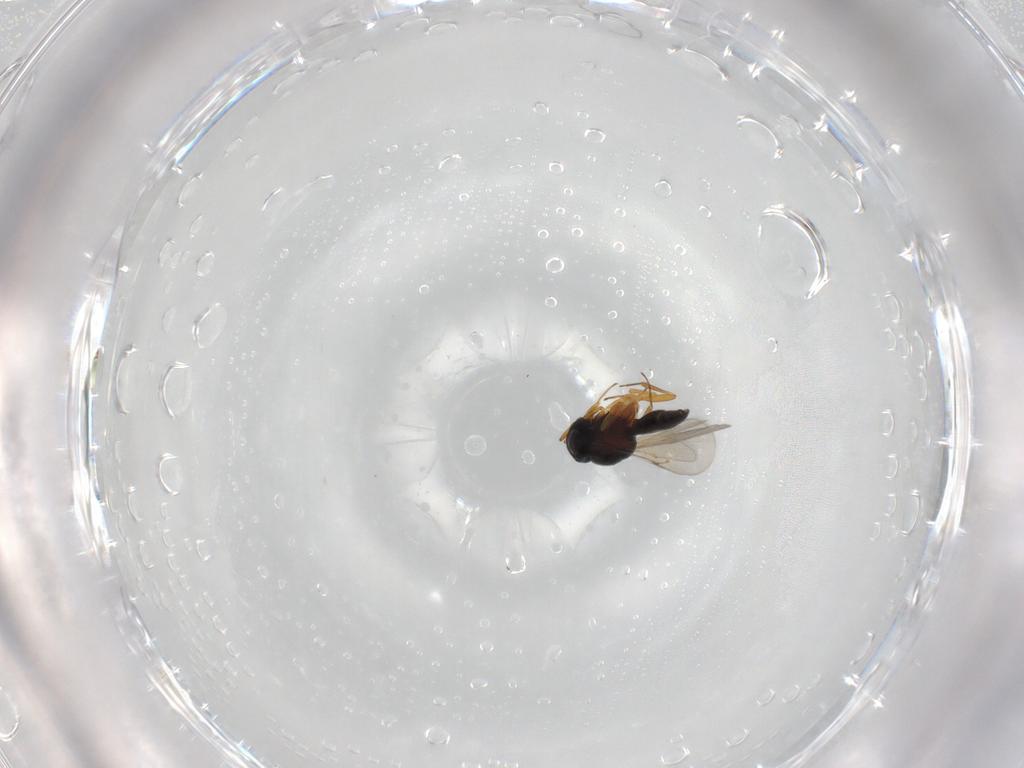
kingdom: Animalia
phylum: Arthropoda
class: Insecta
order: Hymenoptera
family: Scelionidae
